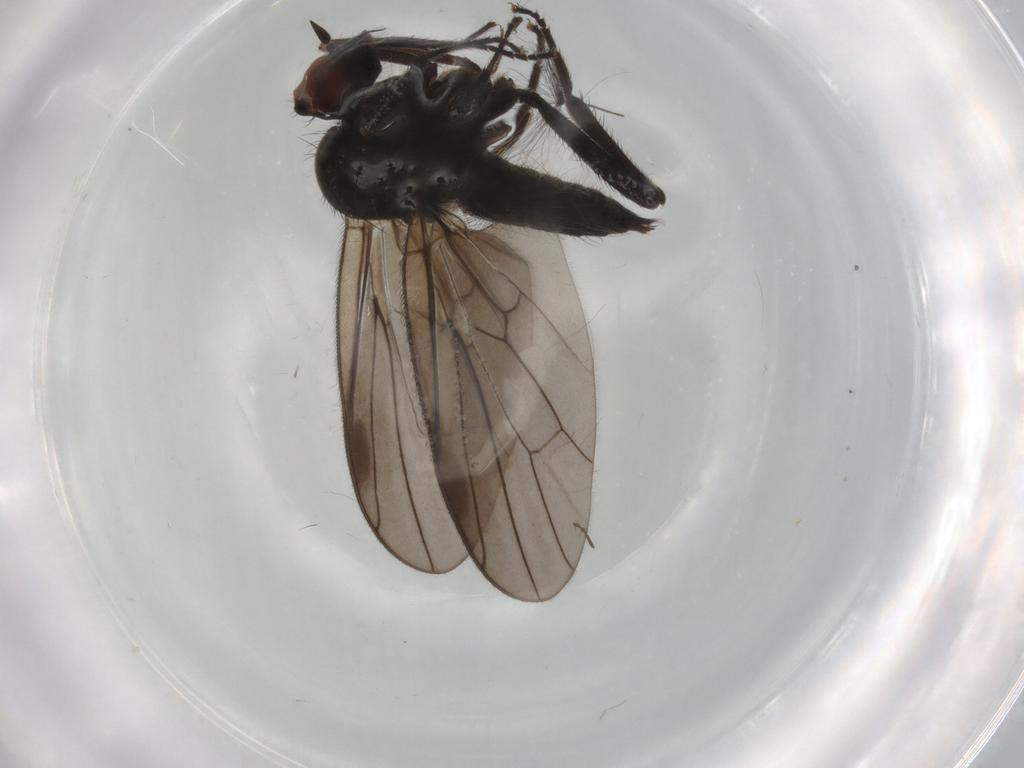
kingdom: Animalia
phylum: Arthropoda
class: Insecta
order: Diptera
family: Hybotidae
